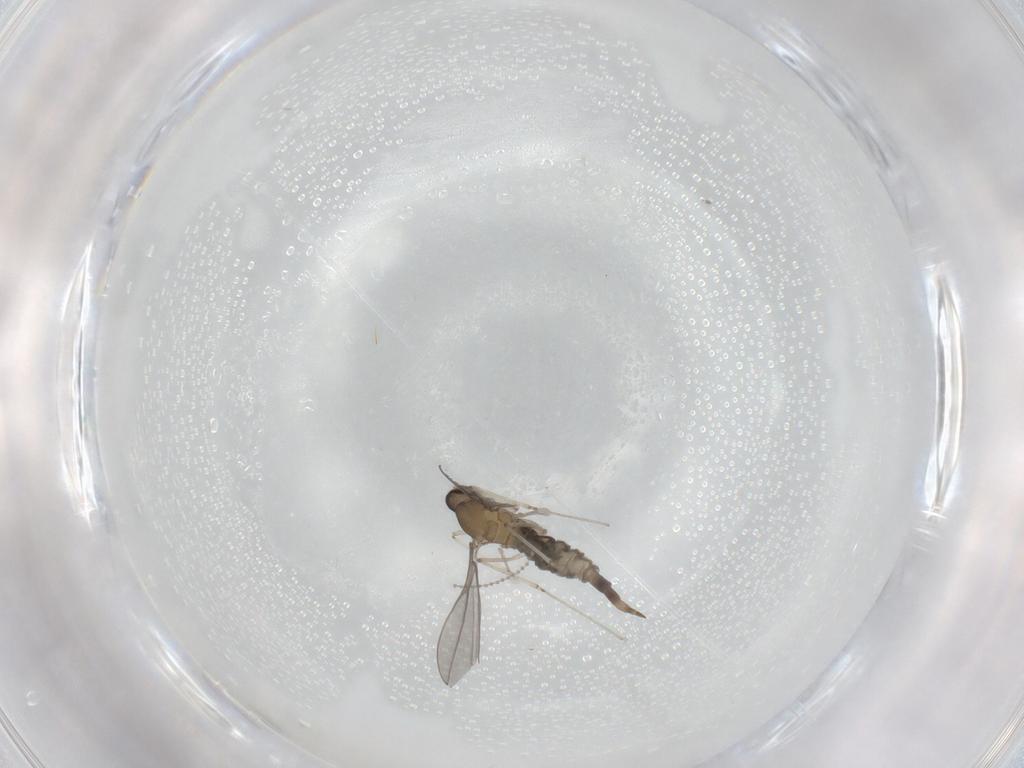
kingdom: Animalia
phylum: Arthropoda
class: Insecta
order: Diptera
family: Cecidomyiidae
